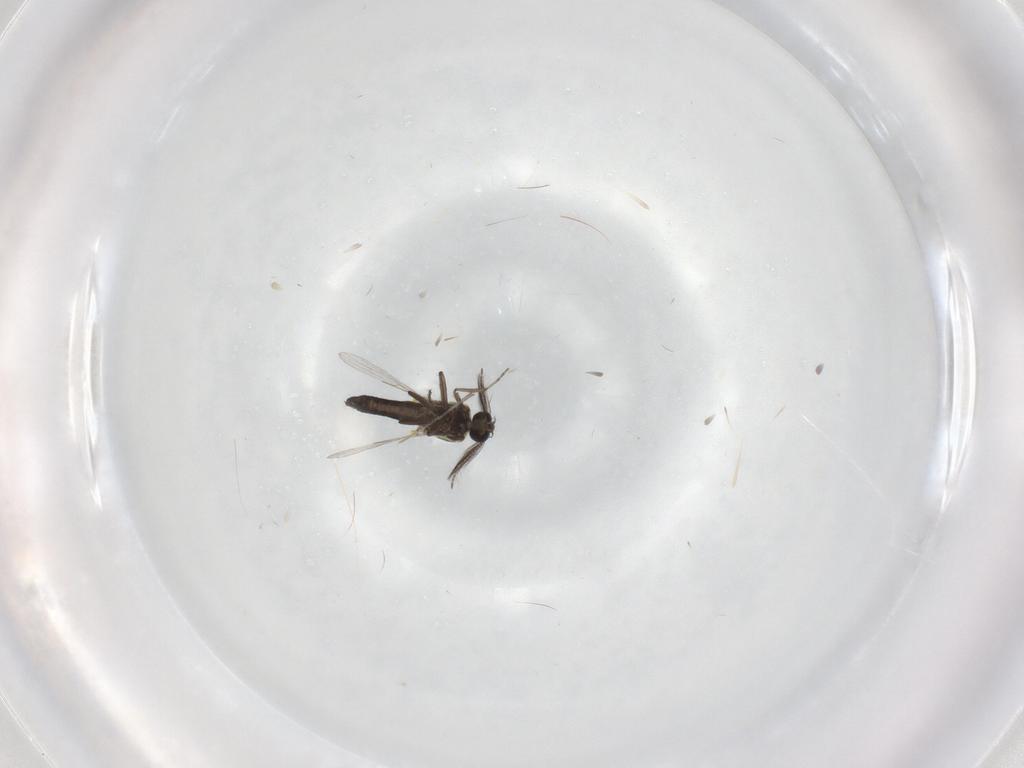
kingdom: Animalia
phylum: Arthropoda
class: Insecta
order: Diptera
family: Ceratopogonidae
